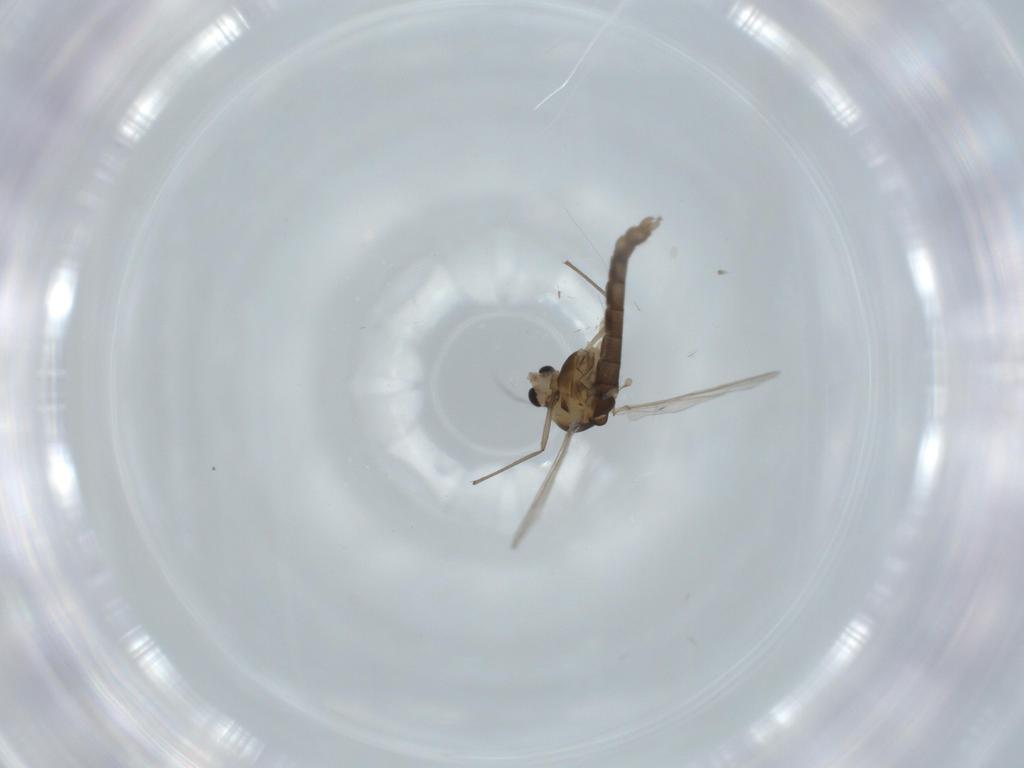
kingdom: Animalia
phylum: Arthropoda
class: Insecta
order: Diptera
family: Chironomidae
